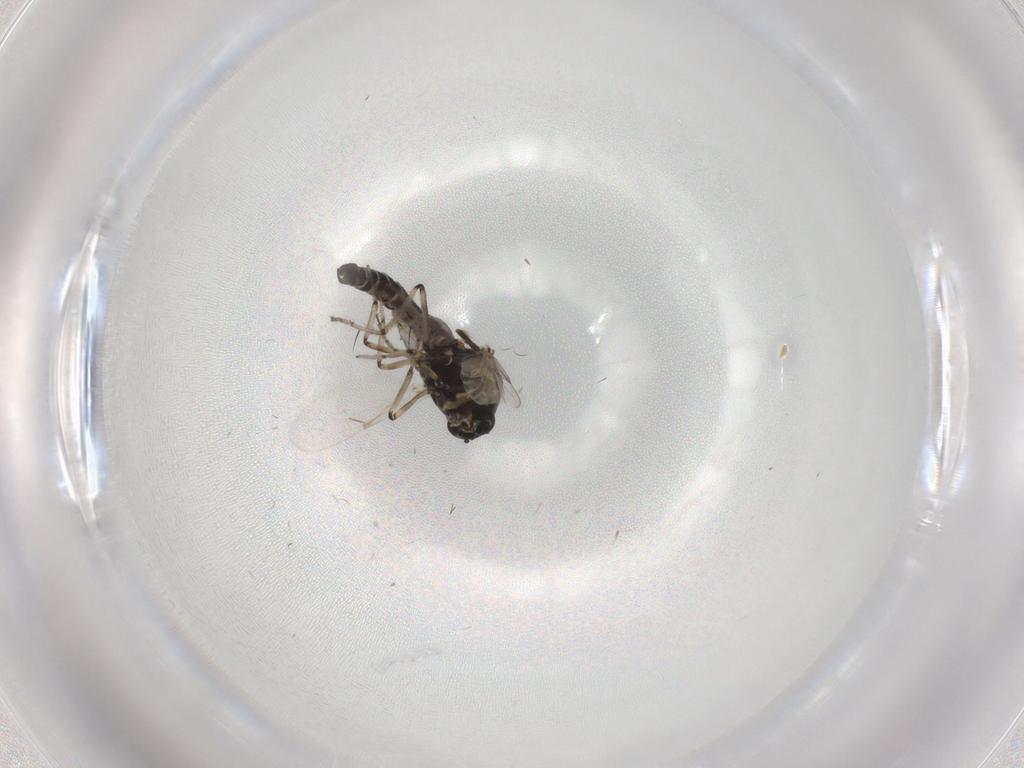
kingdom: Animalia
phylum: Arthropoda
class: Insecta
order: Diptera
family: Ceratopogonidae
